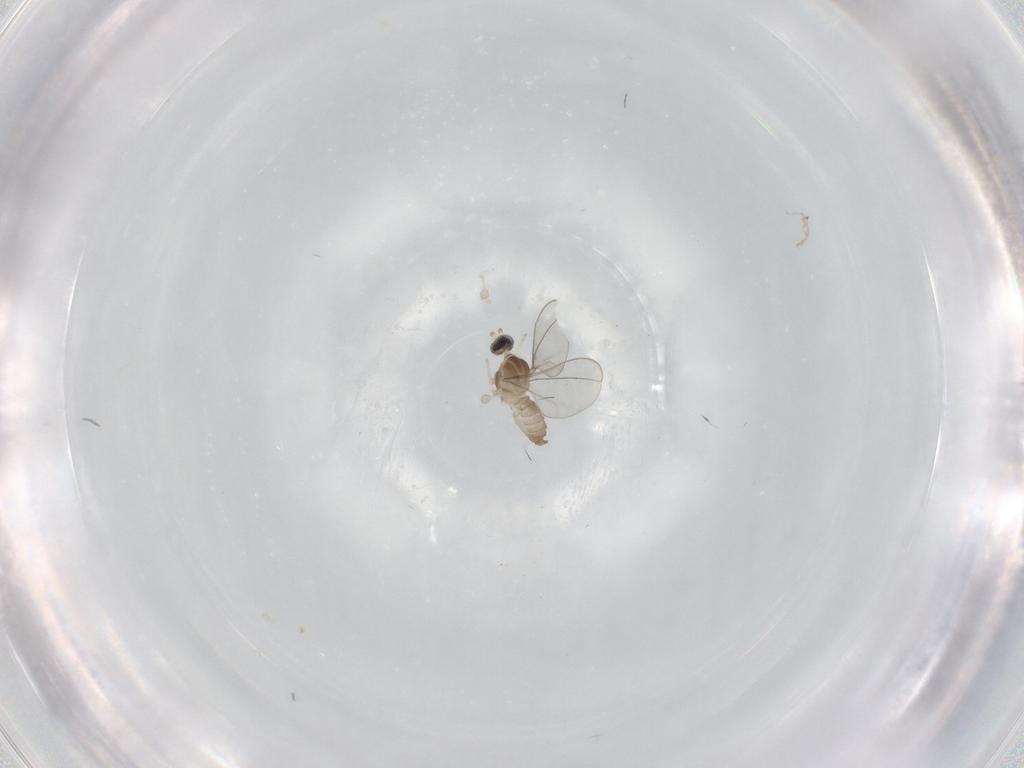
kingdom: Animalia
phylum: Arthropoda
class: Insecta
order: Diptera
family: Cecidomyiidae
